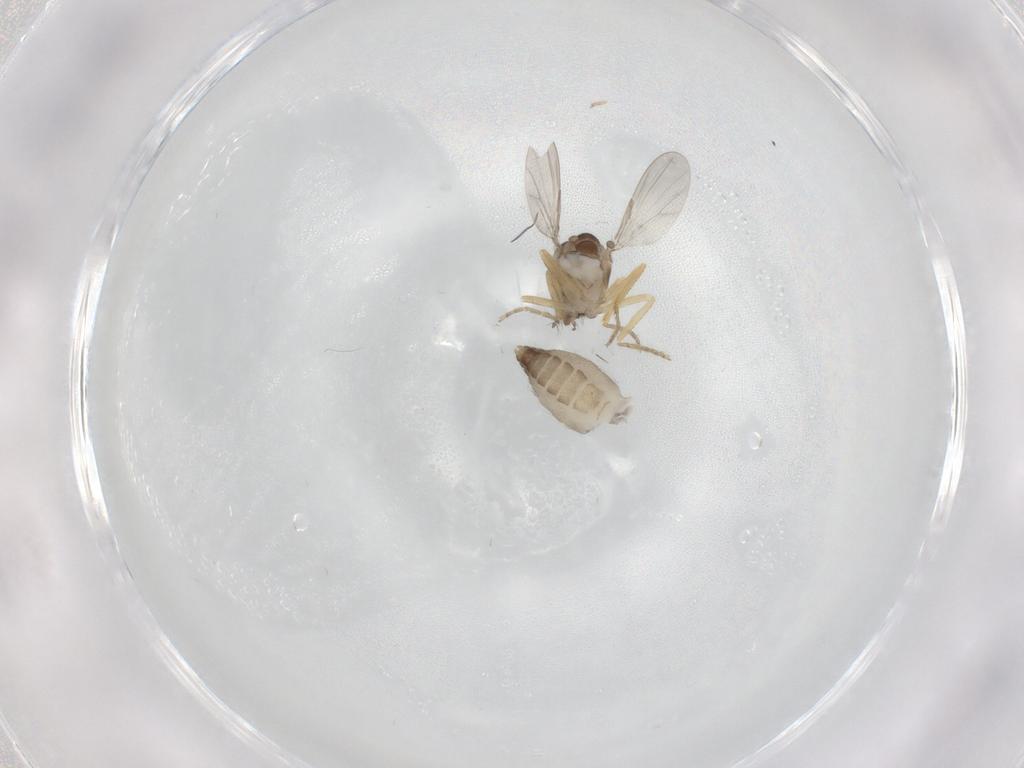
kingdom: Animalia
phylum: Arthropoda
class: Insecta
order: Diptera
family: Ceratopogonidae
